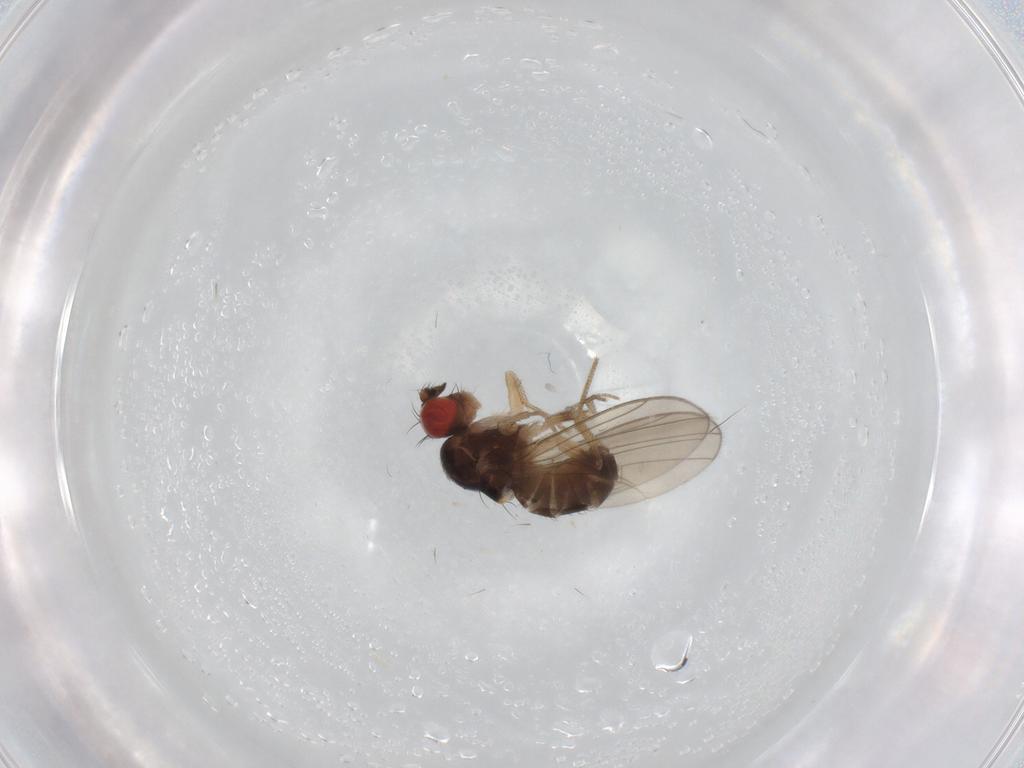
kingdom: Animalia
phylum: Arthropoda
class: Insecta
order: Diptera
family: Drosophilidae
